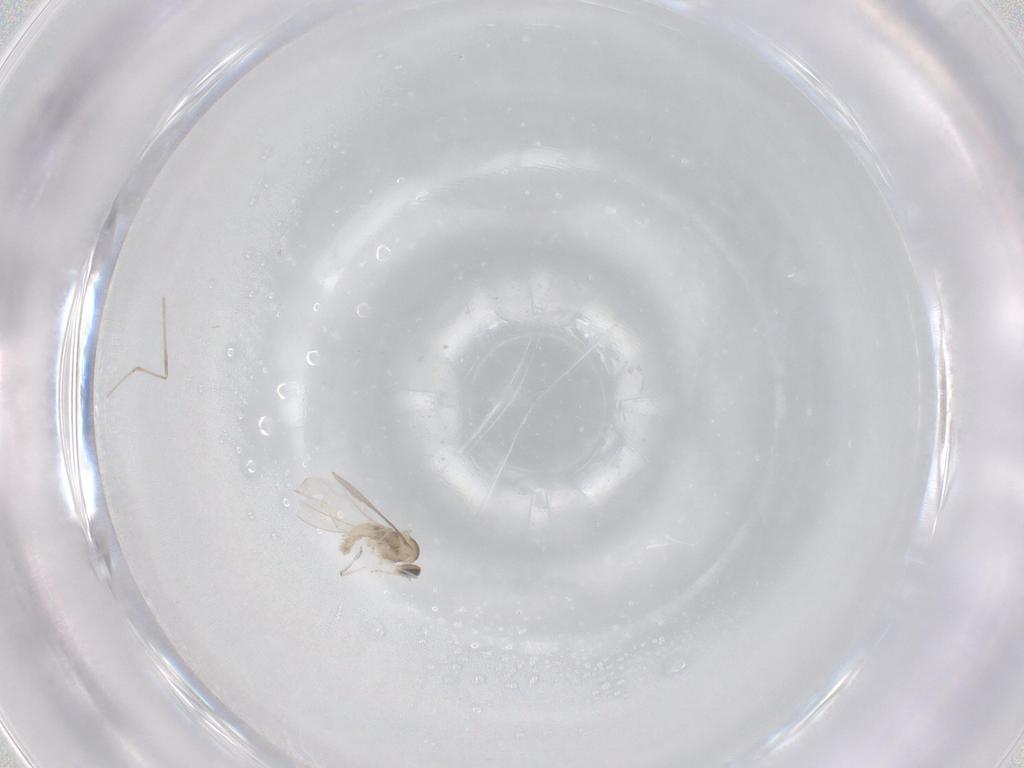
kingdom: Animalia
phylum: Arthropoda
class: Insecta
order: Diptera
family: Cecidomyiidae
